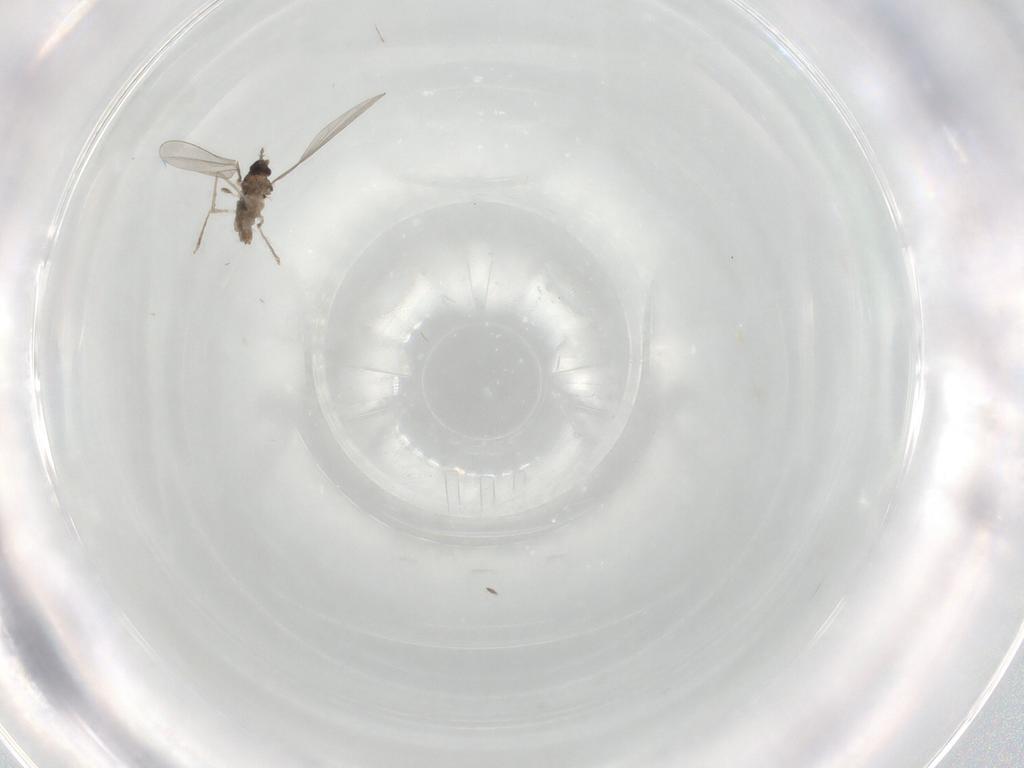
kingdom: Animalia
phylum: Arthropoda
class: Insecta
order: Diptera
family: Cecidomyiidae
